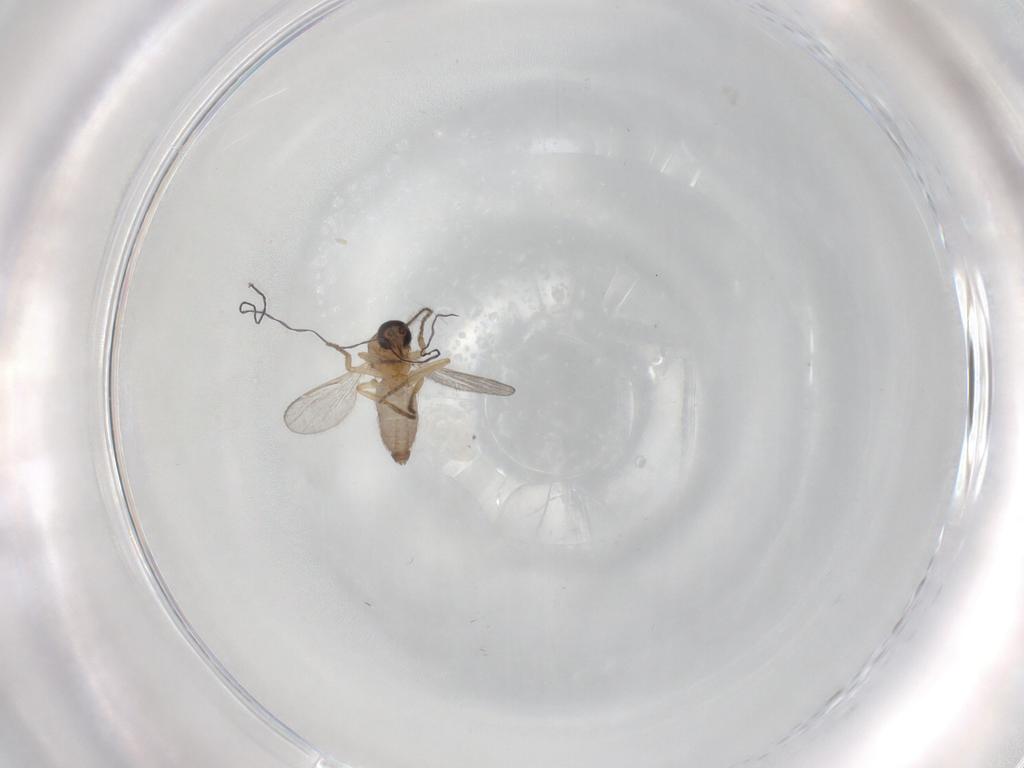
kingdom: Animalia
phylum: Arthropoda
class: Insecta
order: Diptera
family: Ceratopogonidae
